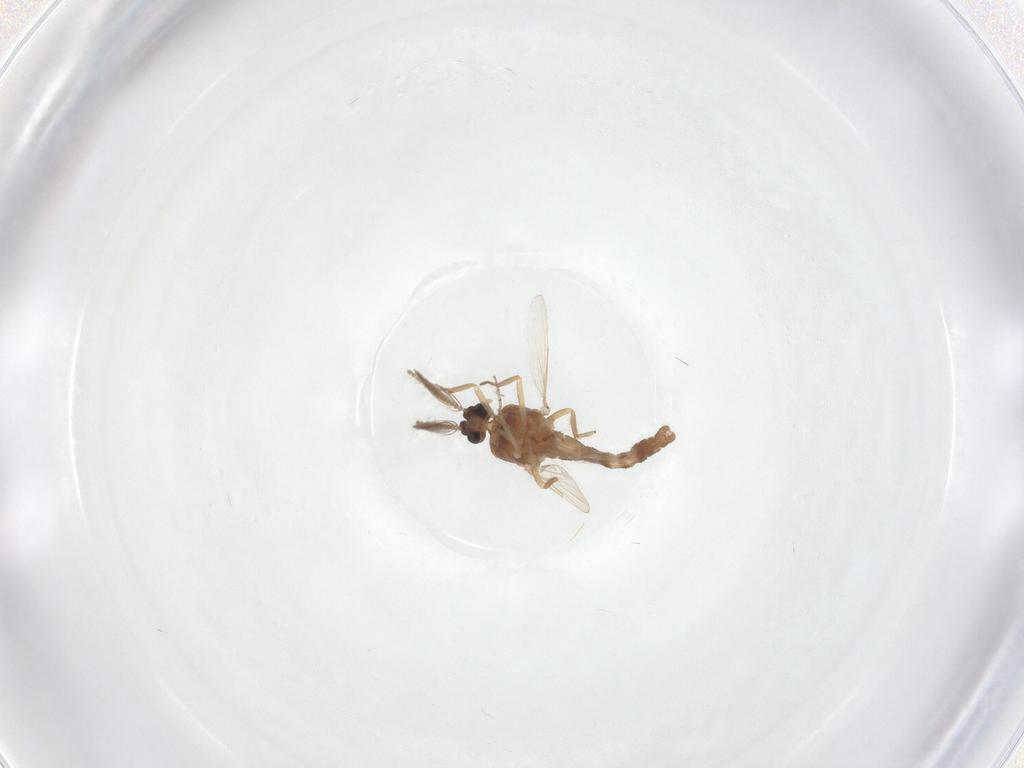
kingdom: Animalia
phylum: Arthropoda
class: Insecta
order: Diptera
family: Ceratopogonidae
